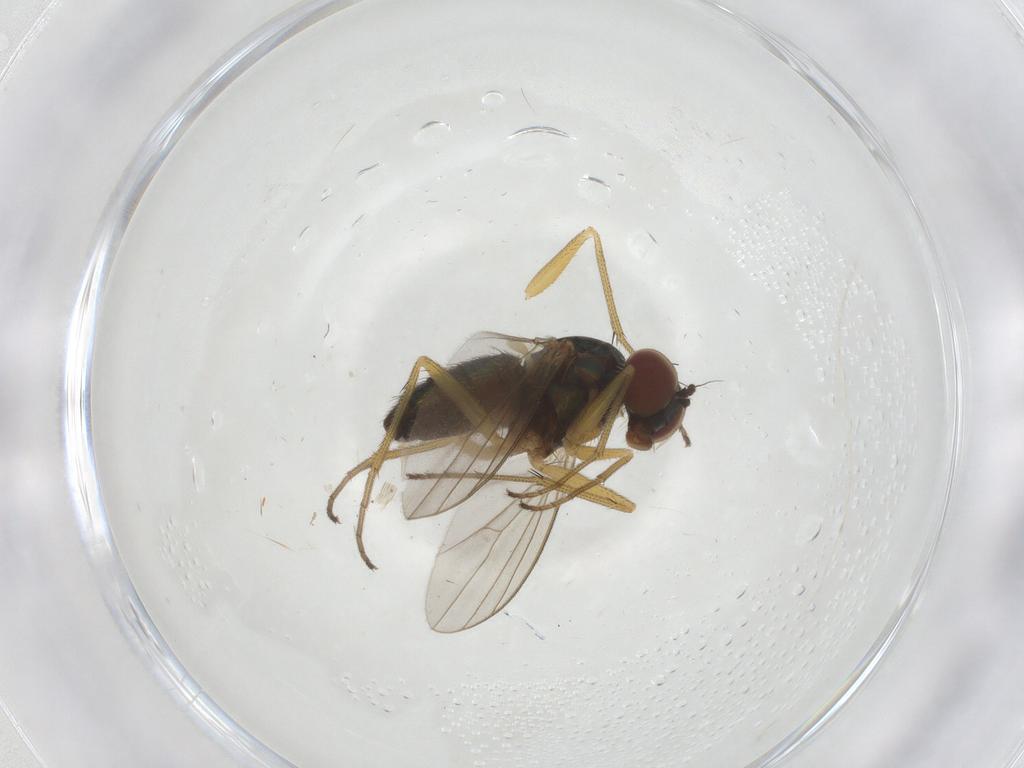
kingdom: Animalia
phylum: Arthropoda
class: Insecta
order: Diptera
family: Dolichopodidae
